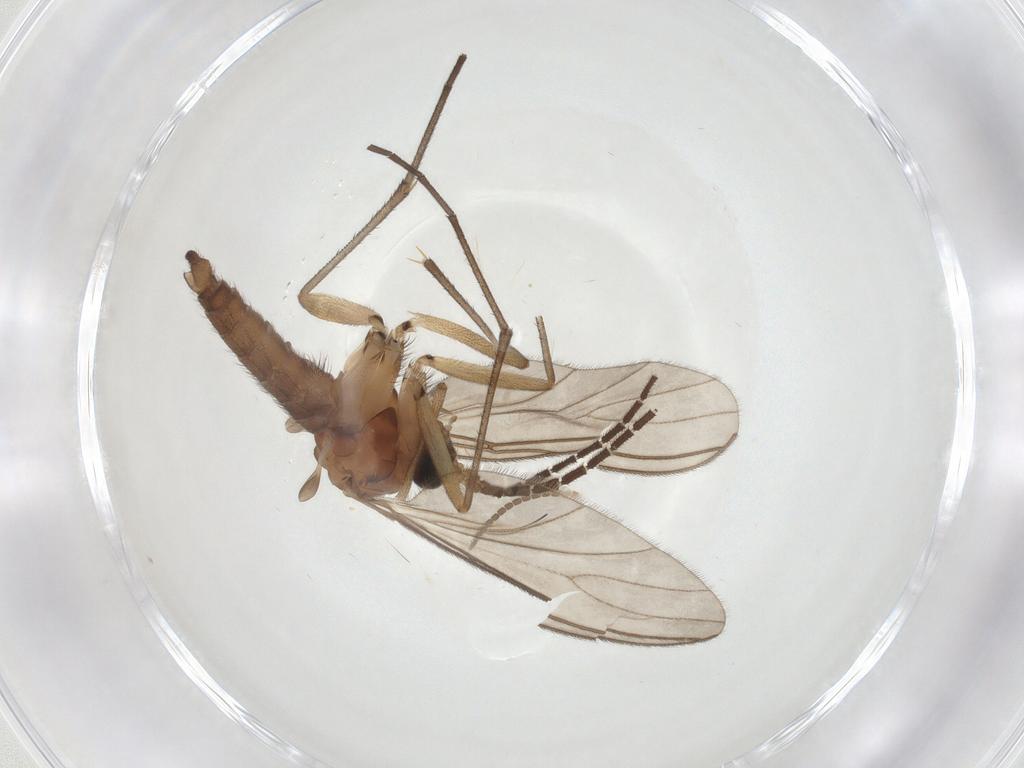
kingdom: Animalia
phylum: Arthropoda
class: Insecta
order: Diptera
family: Sciaridae
